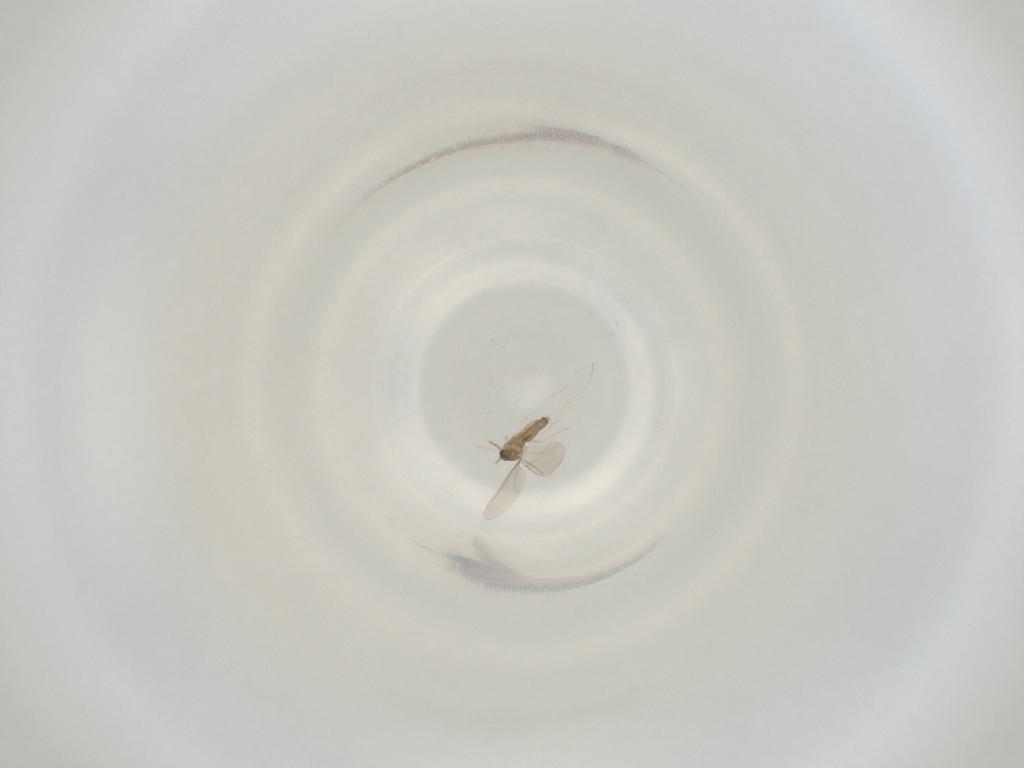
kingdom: Animalia
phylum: Arthropoda
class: Insecta
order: Diptera
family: Cecidomyiidae
